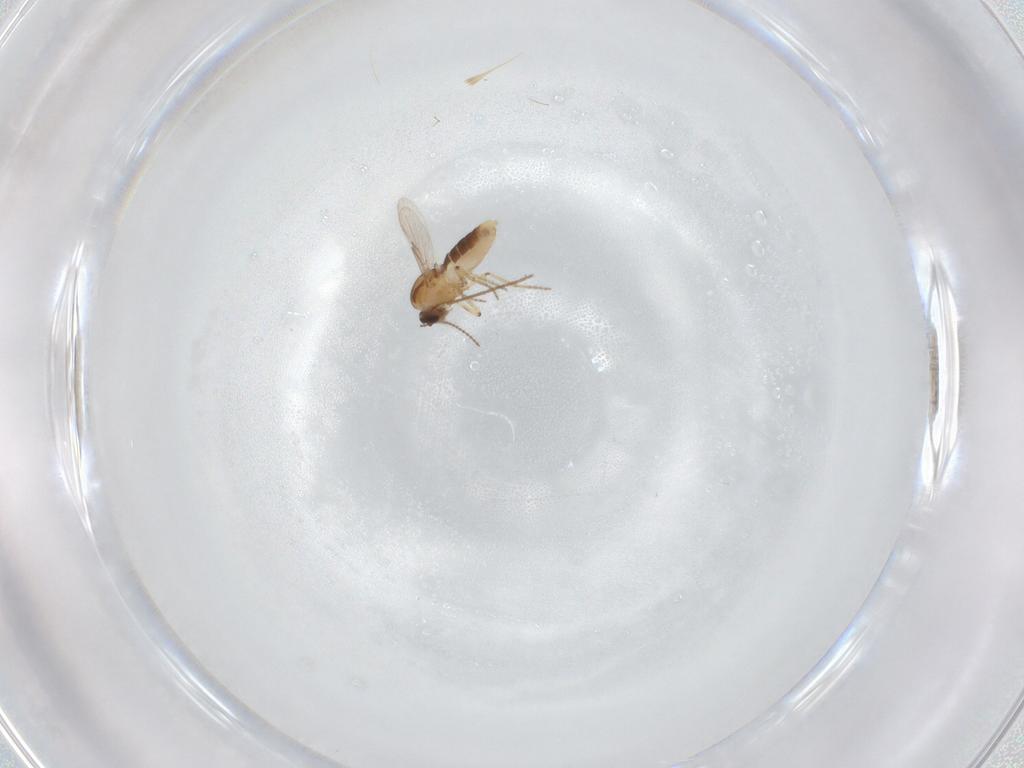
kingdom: Animalia
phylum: Arthropoda
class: Insecta
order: Diptera
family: Ceratopogonidae
